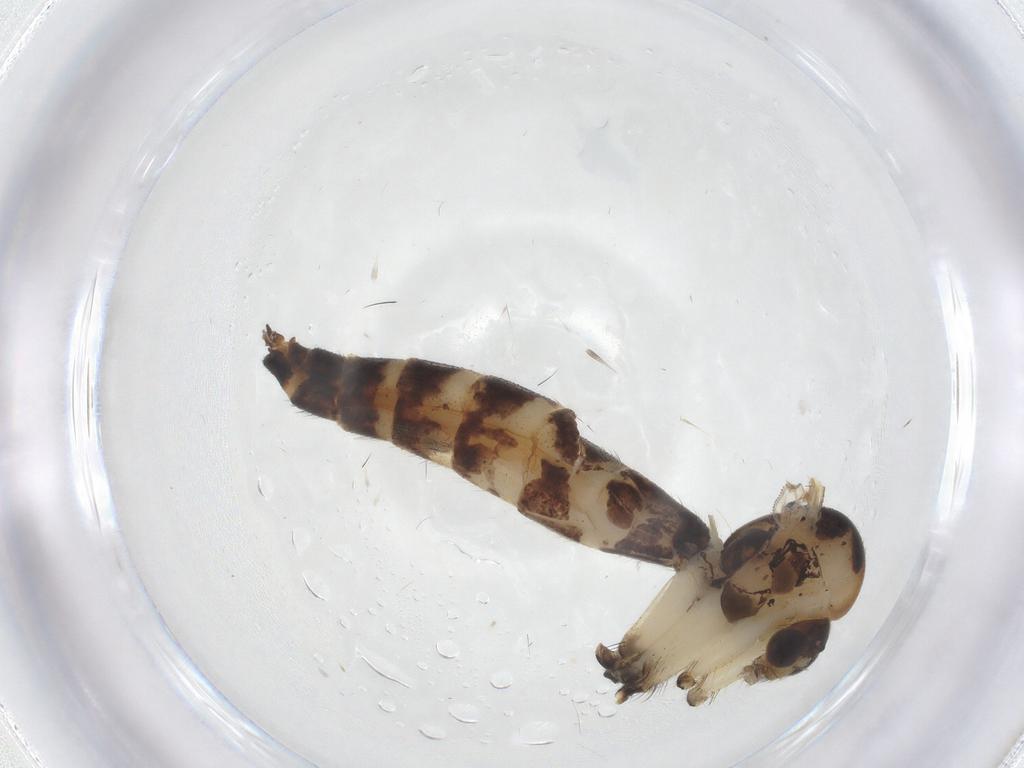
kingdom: Animalia
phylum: Arthropoda
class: Insecta
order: Diptera
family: Mycetophilidae
